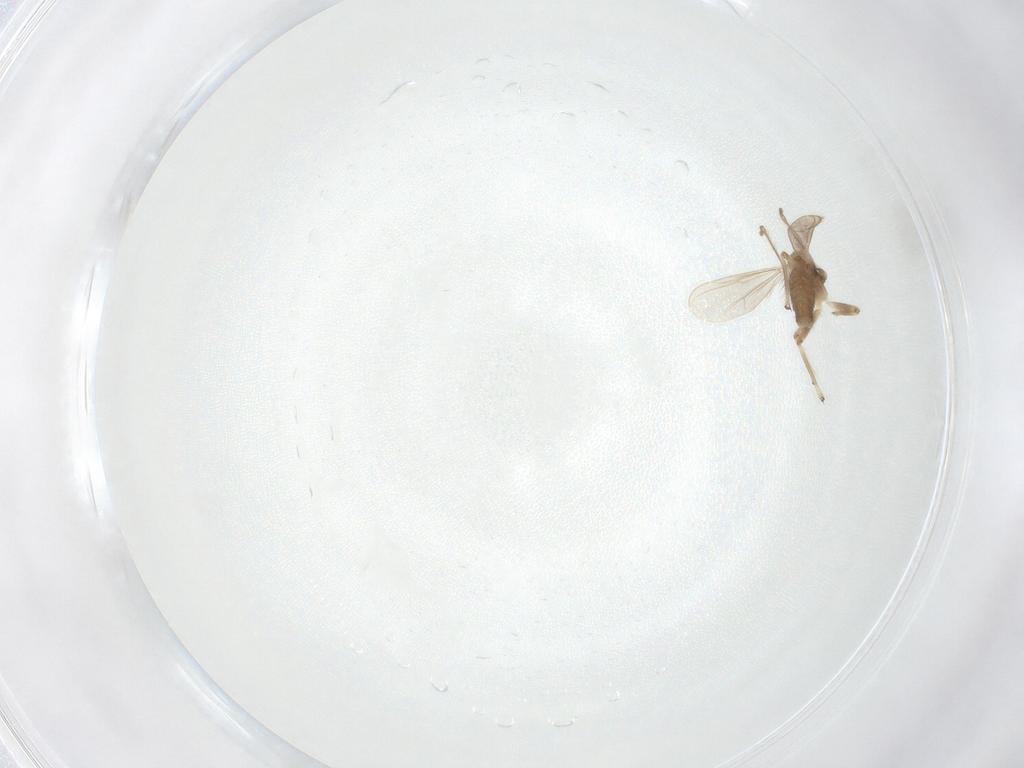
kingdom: Animalia
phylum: Arthropoda
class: Insecta
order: Diptera
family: Chironomidae
